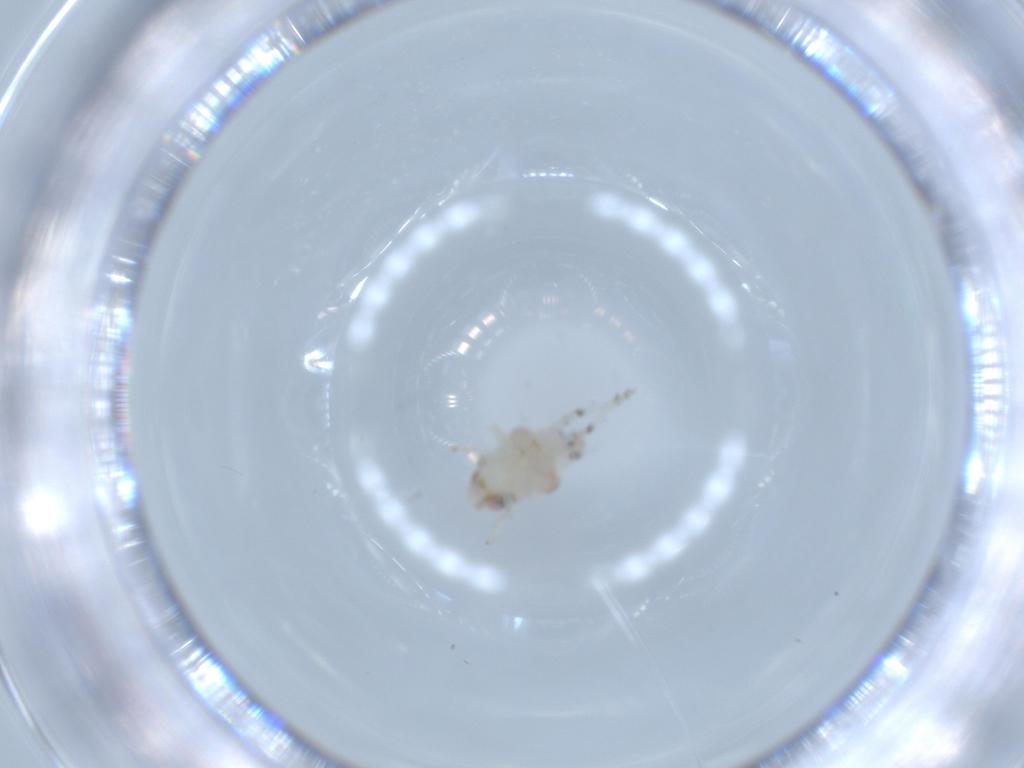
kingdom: Animalia
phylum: Arthropoda
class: Insecta
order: Hemiptera
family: Nogodinidae
